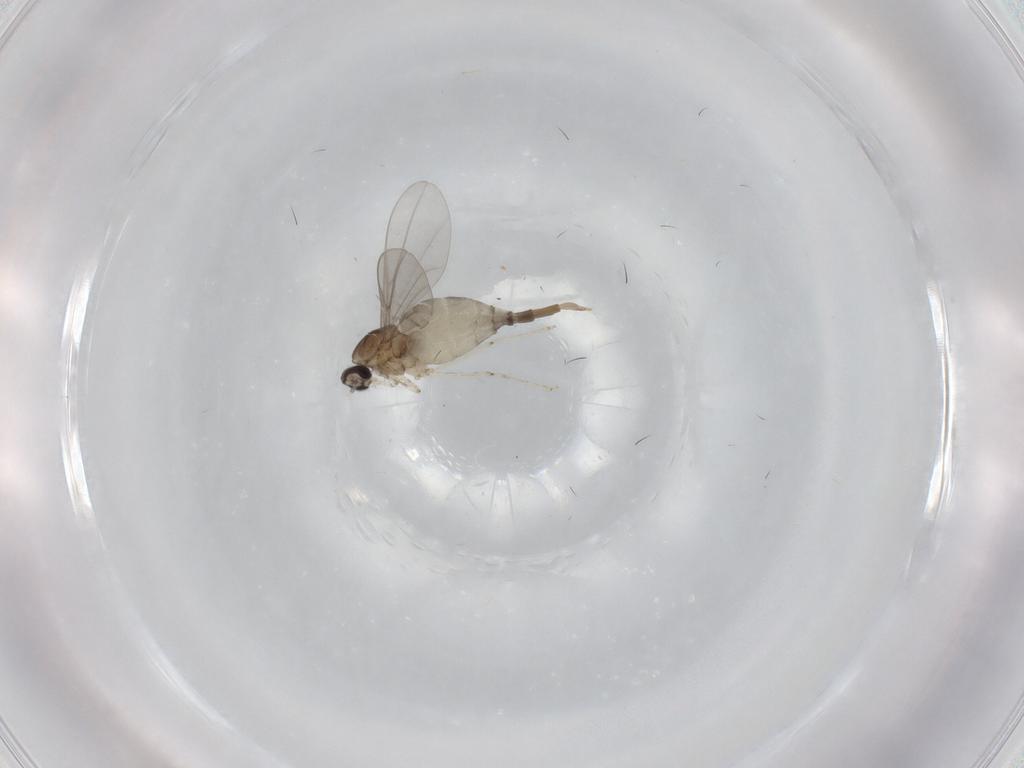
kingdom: Animalia
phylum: Arthropoda
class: Insecta
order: Diptera
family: Cecidomyiidae
